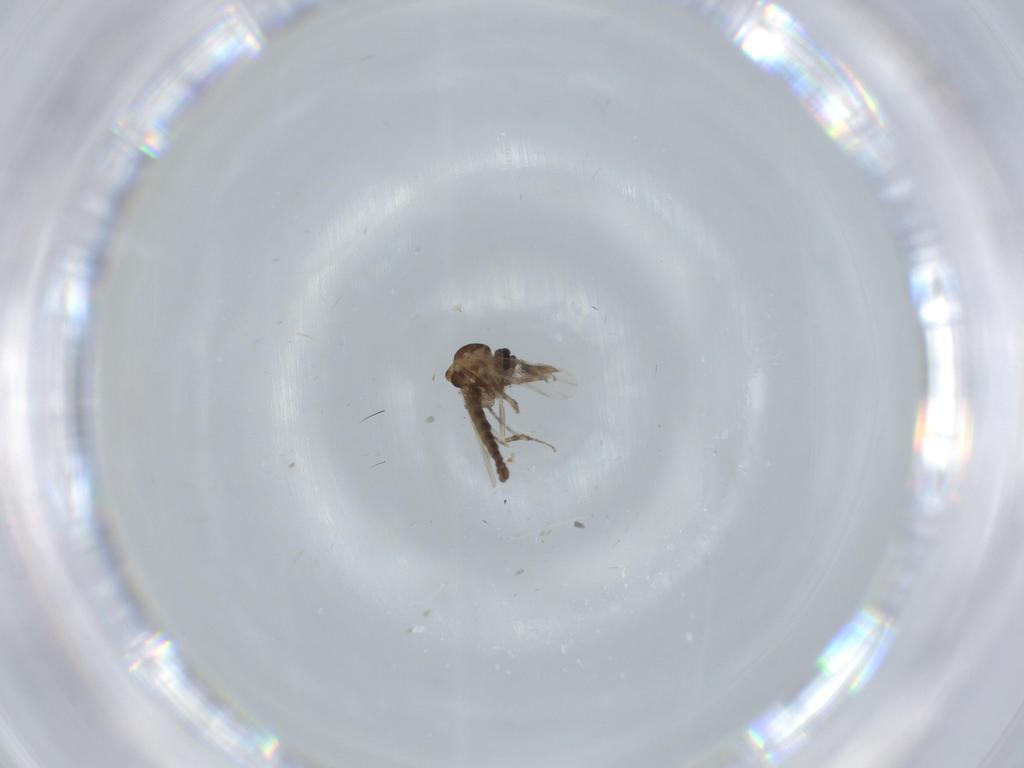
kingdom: Animalia
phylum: Arthropoda
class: Insecta
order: Diptera
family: Ceratopogonidae
